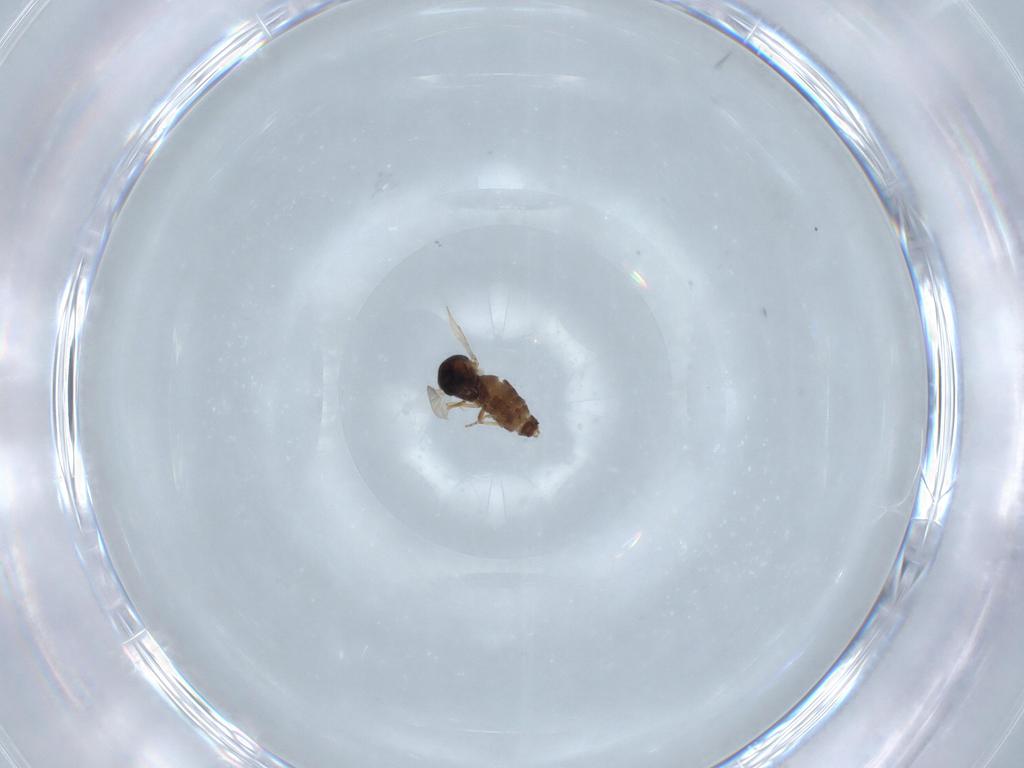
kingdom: Animalia
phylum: Arthropoda
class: Insecta
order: Diptera
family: Ceratopogonidae
